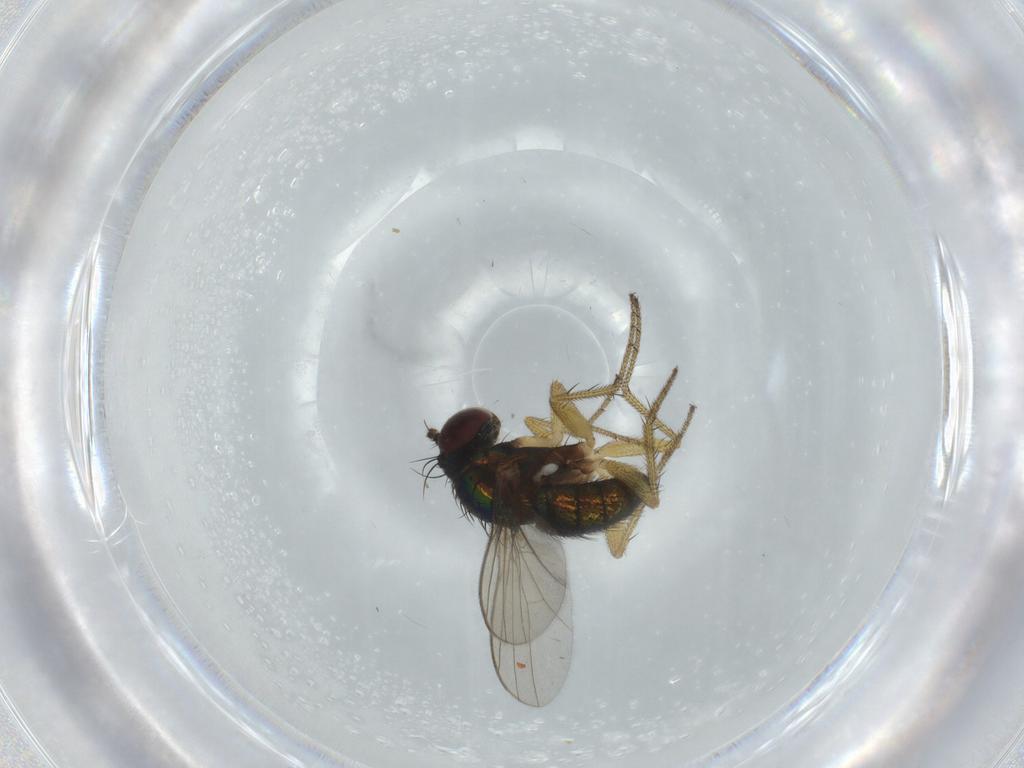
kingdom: Animalia
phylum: Arthropoda
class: Insecta
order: Diptera
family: Dolichopodidae
